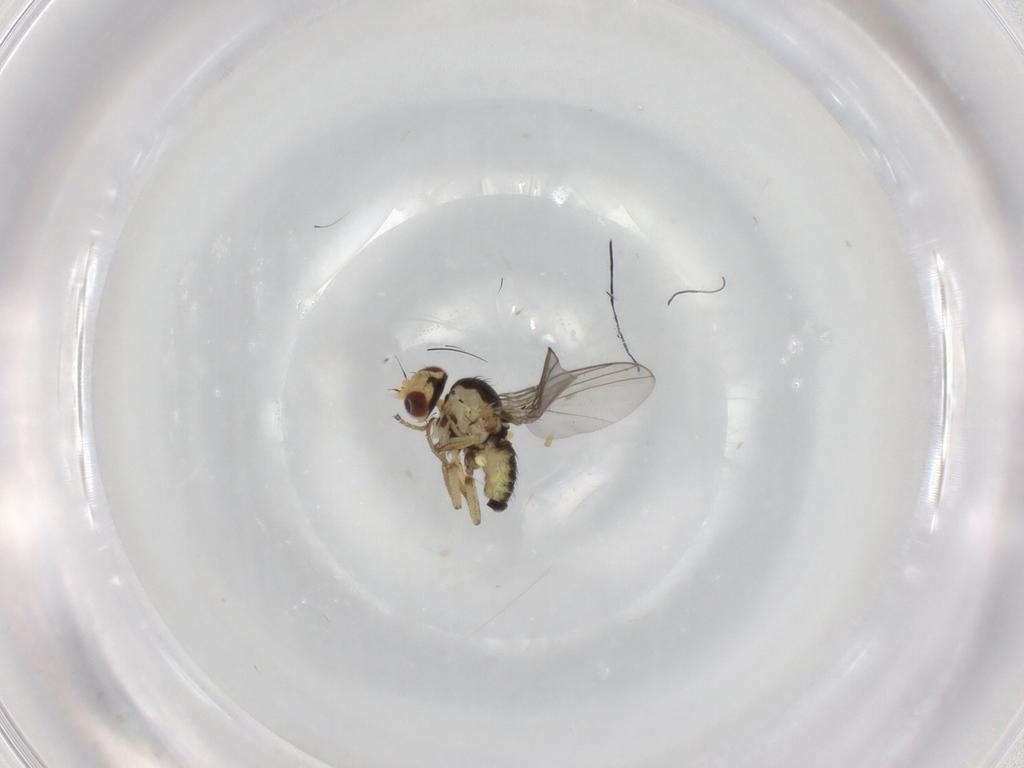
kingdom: Animalia
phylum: Arthropoda
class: Insecta
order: Diptera
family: Agromyzidae
